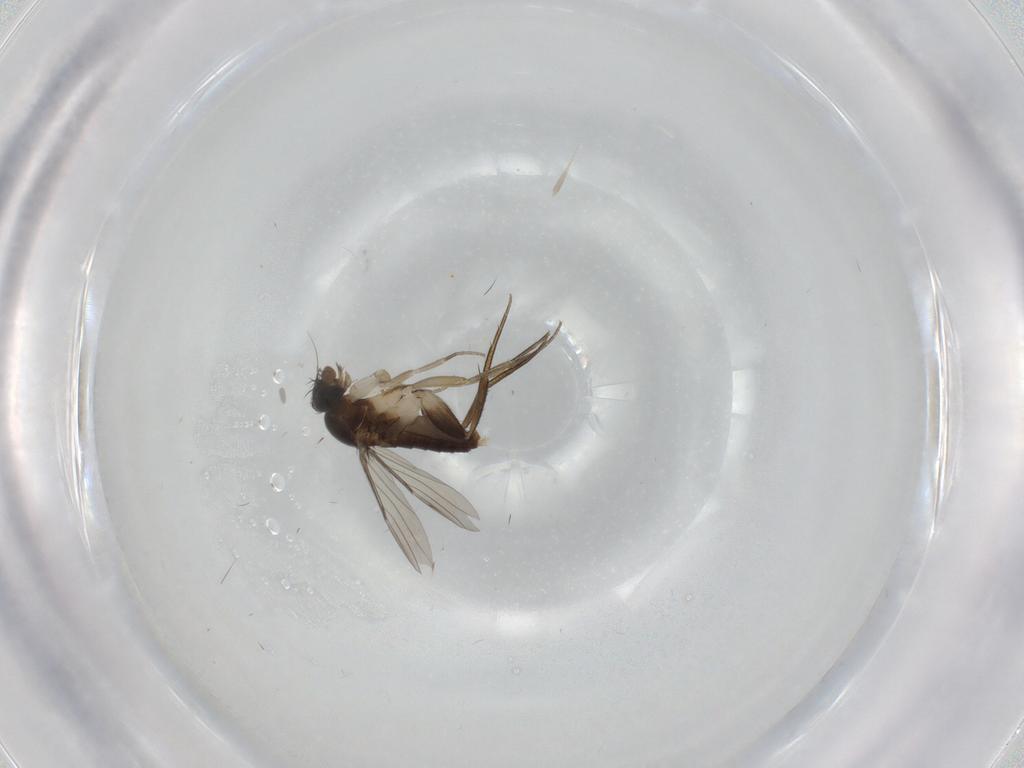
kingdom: Animalia
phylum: Arthropoda
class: Insecta
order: Diptera
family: Phoridae
